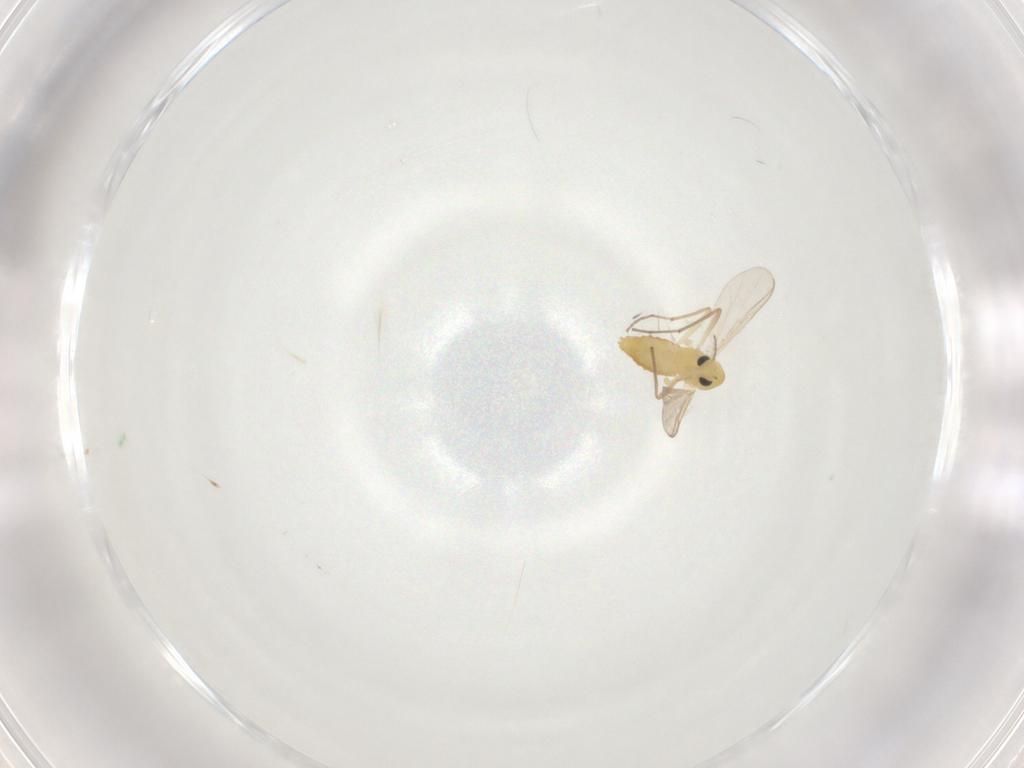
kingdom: Animalia
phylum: Arthropoda
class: Insecta
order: Diptera
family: Chironomidae
